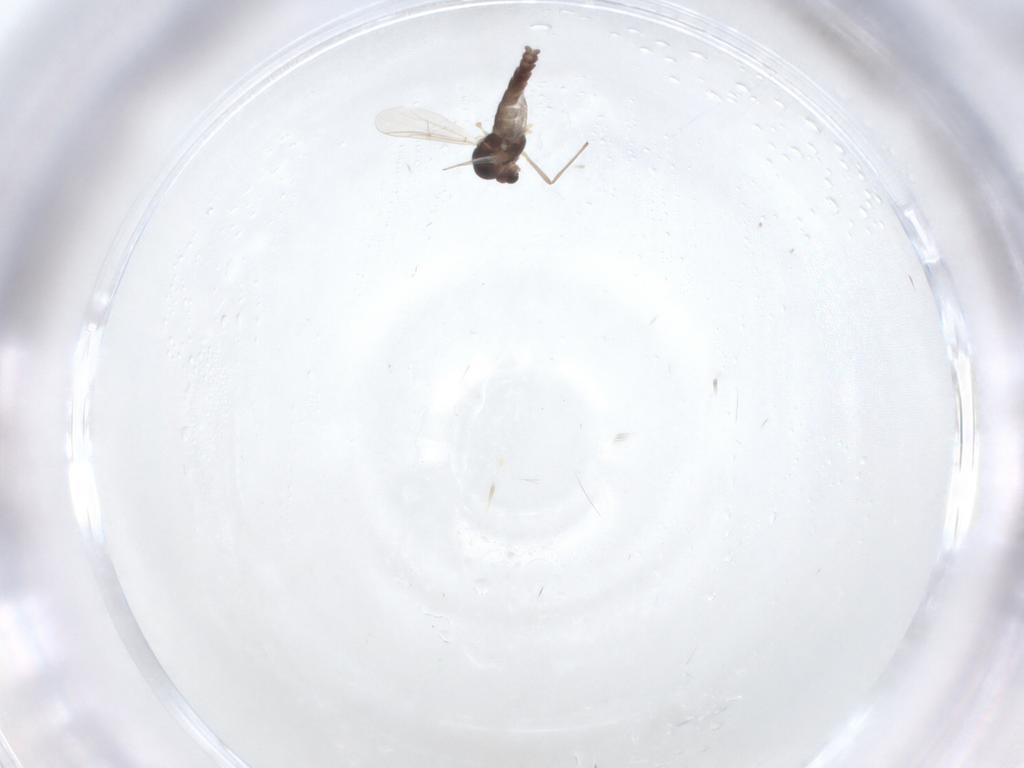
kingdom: Animalia
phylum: Arthropoda
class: Insecta
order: Diptera
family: Chironomidae
